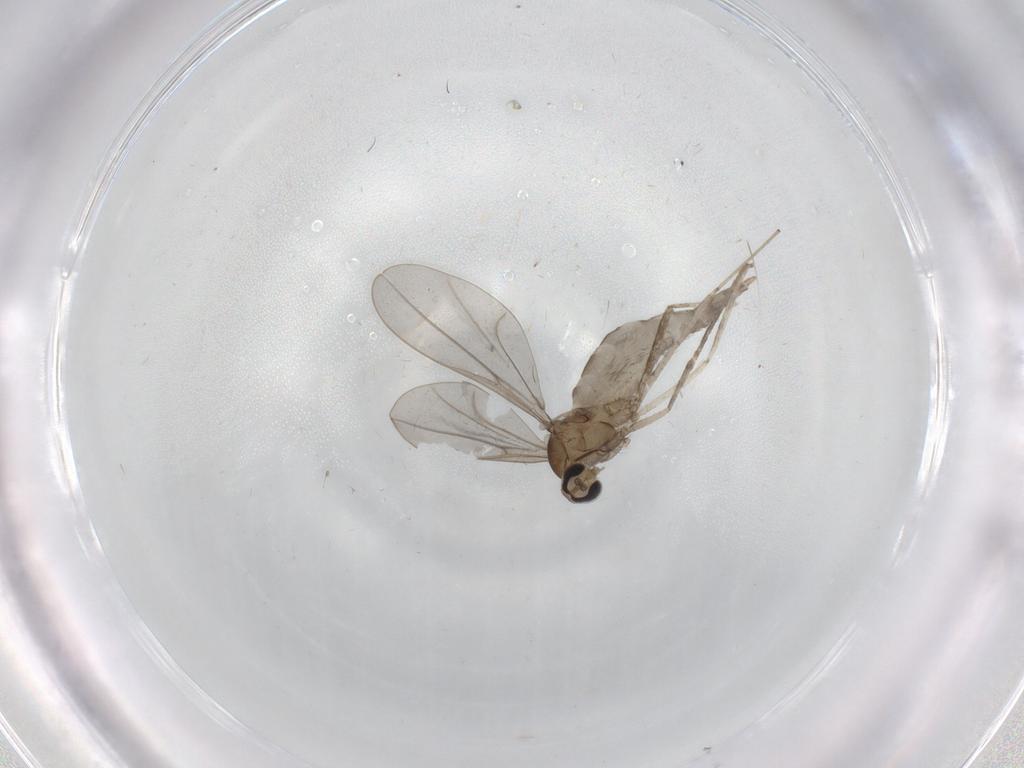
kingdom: Animalia
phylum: Arthropoda
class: Insecta
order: Diptera
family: Cecidomyiidae
